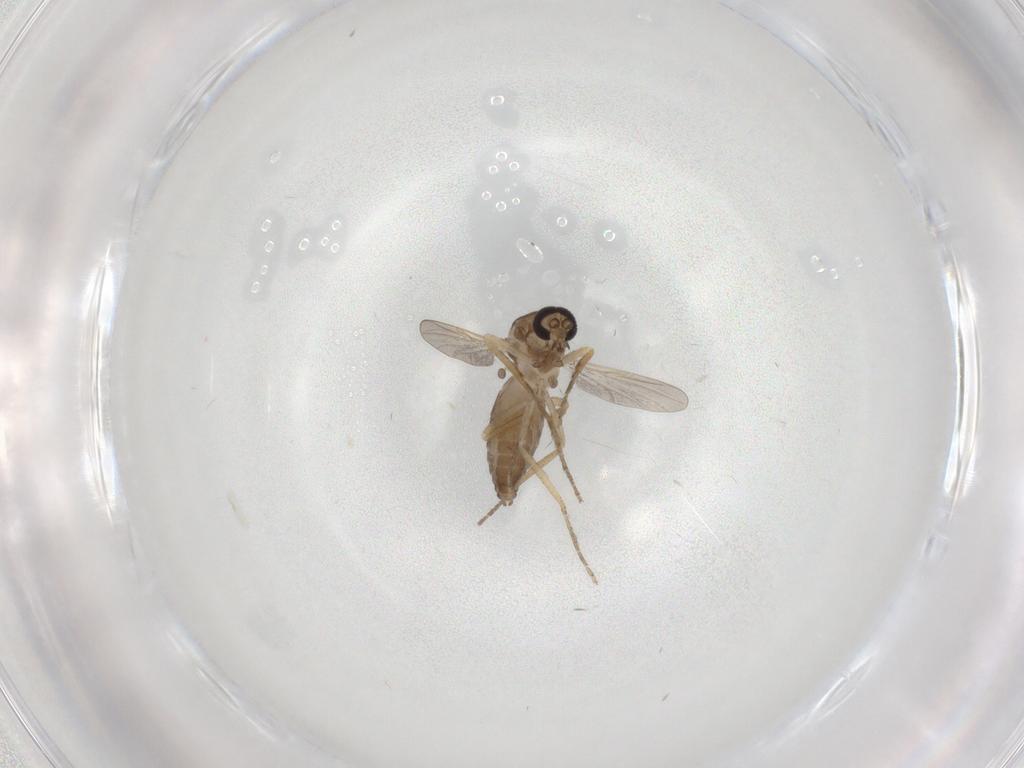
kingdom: Animalia
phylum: Arthropoda
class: Insecta
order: Diptera
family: Ceratopogonidae
